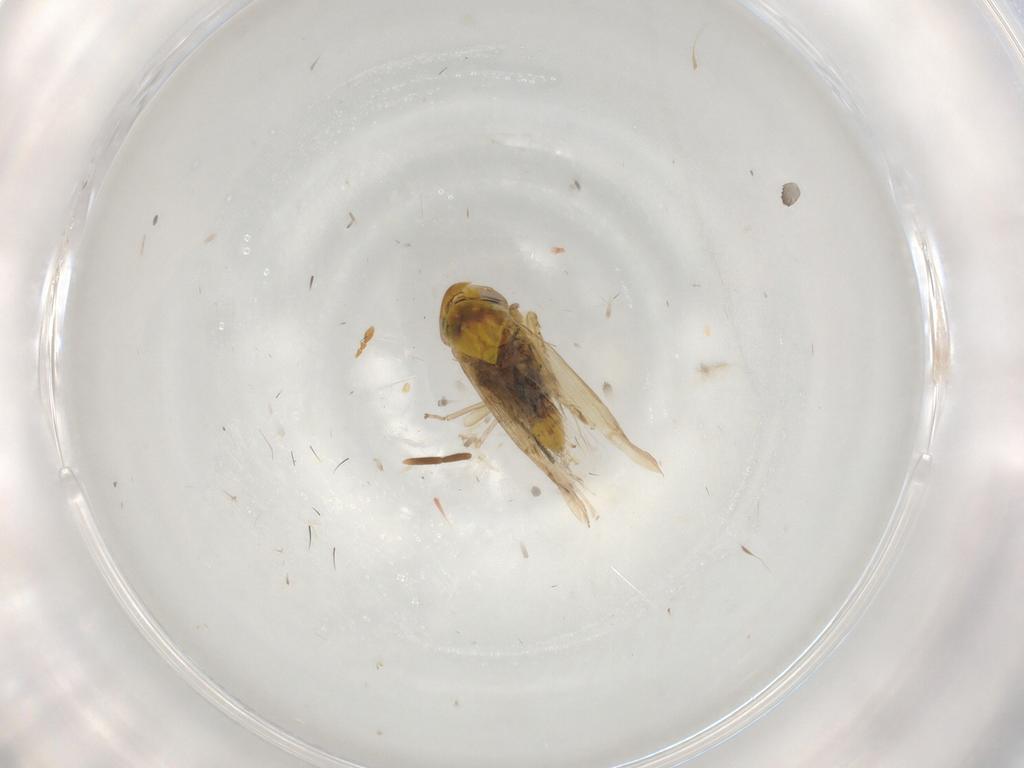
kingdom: Animalia
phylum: Arthropoda
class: Insecta
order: Hemiptera
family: Cicadellidae
